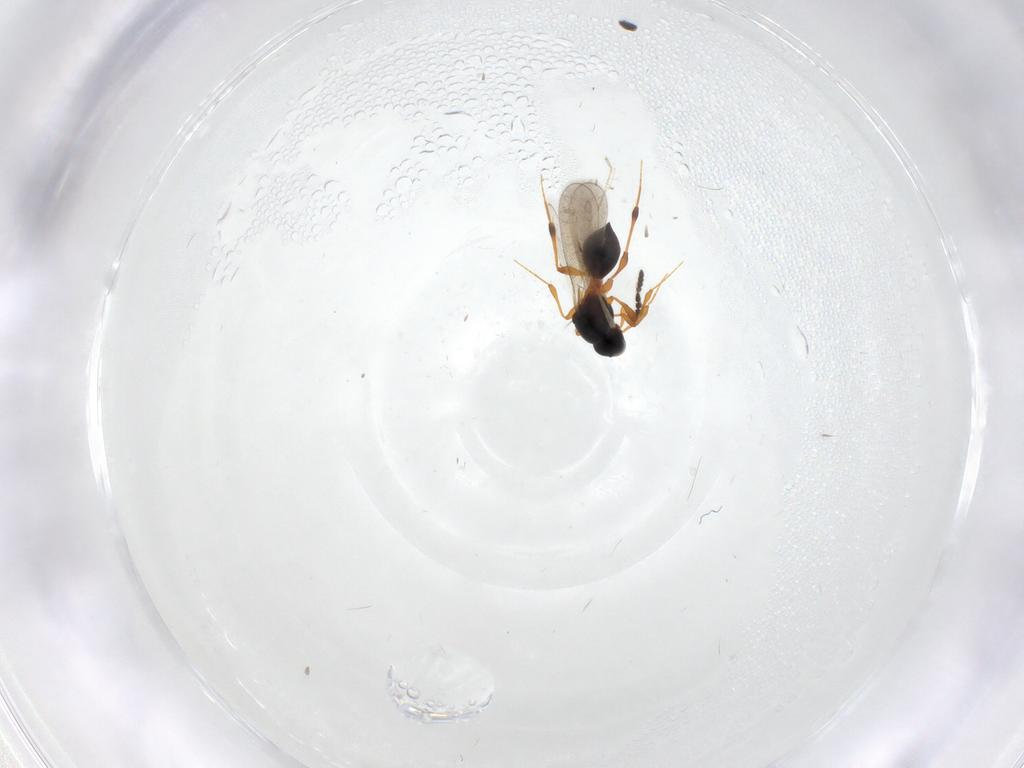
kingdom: Animalia
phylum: Arthropoda
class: Insecta
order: Hymenoptera
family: Platygastridae
